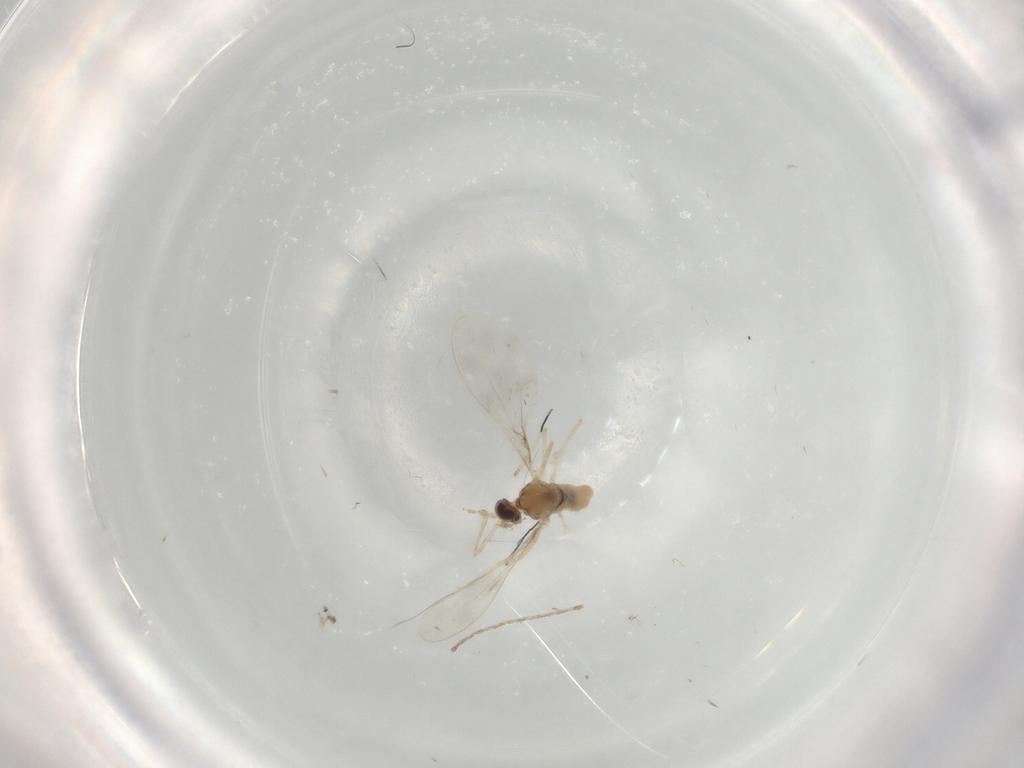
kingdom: Animalia
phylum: Arthropoda
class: Insecta
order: Diptera
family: Cecidomyiidae
